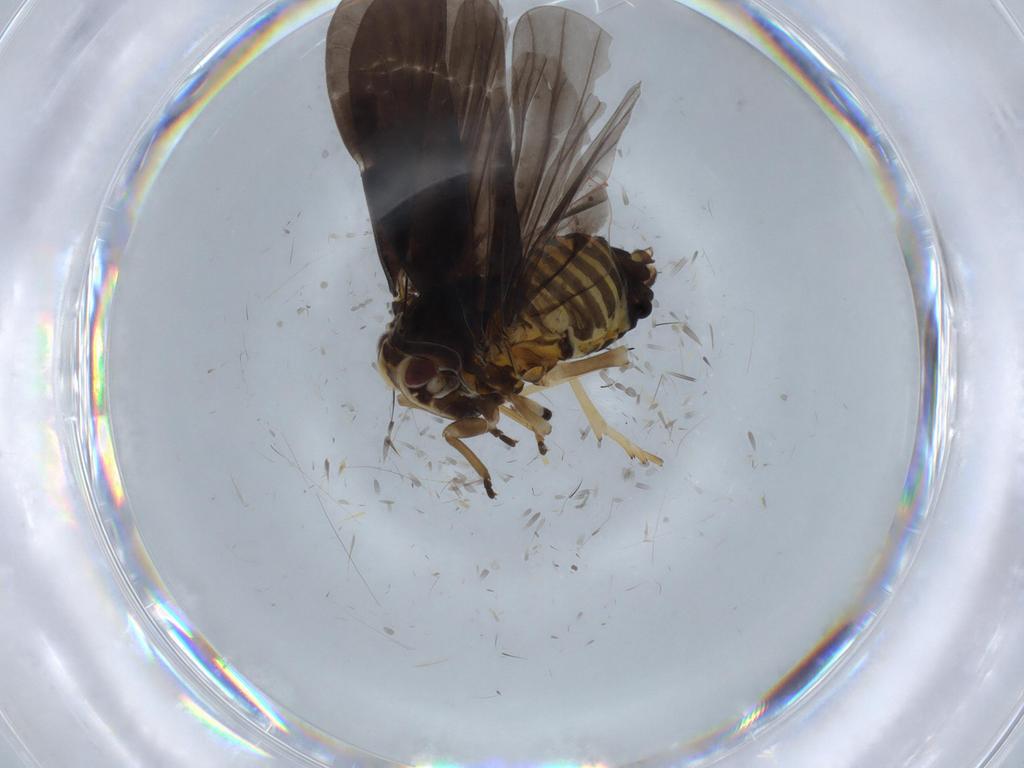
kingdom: Animalia
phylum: Arthropoda
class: Insecta
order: Hemiptera
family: Derbidae
